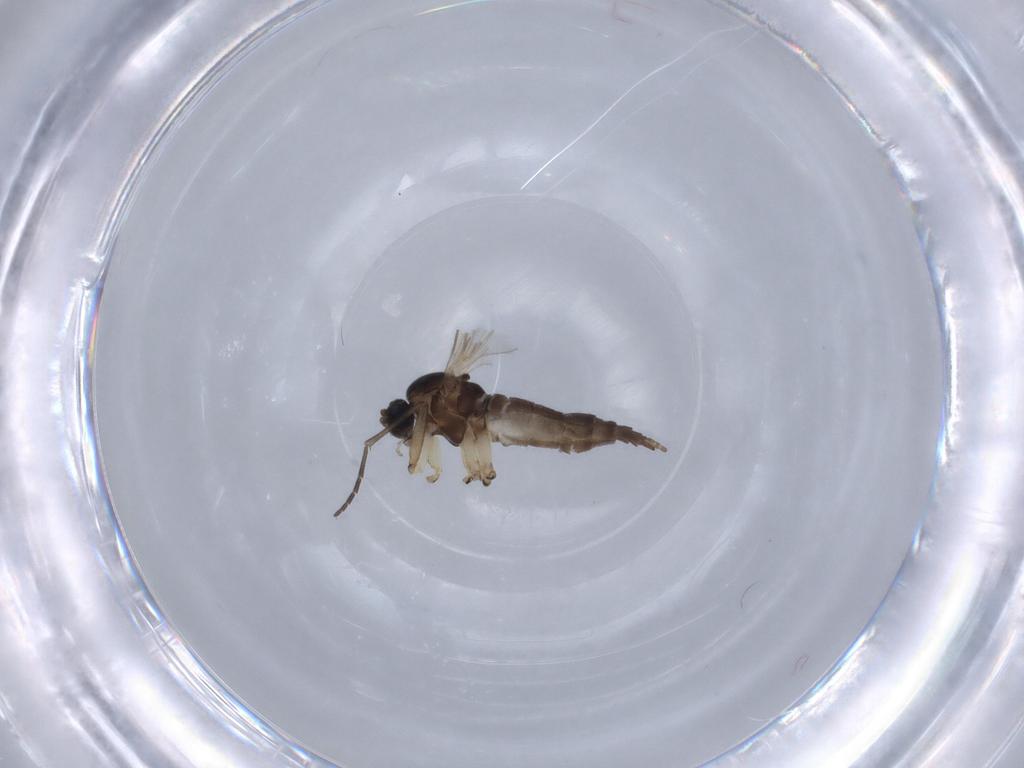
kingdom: Animalia
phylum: Arthropoda
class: Insecta
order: Diptera
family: Sciaridae
